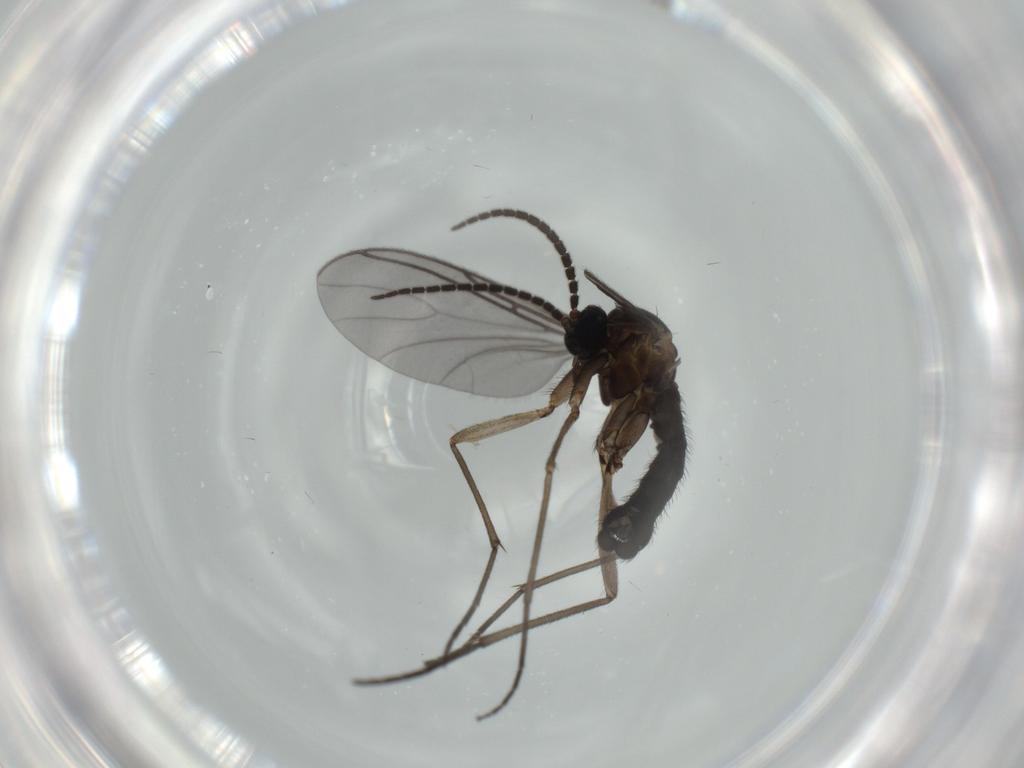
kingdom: Animalia
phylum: Arthropoda
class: Insecta
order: Diptera
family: Sciaridae
